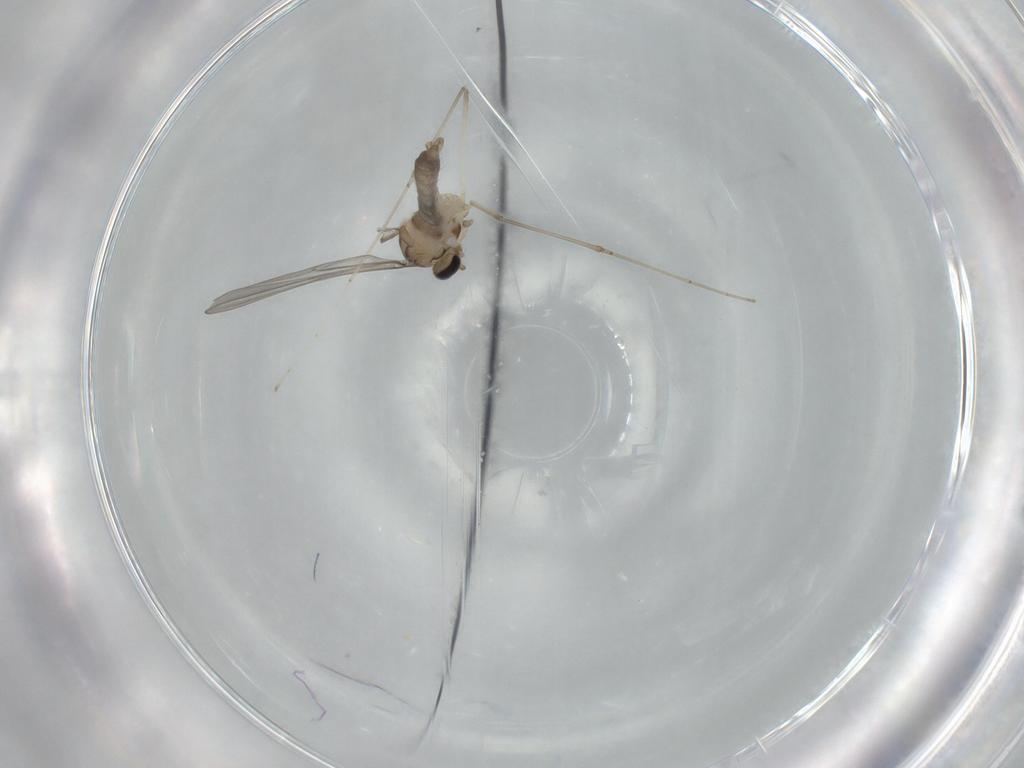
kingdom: Animalia
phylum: Arthropoda
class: Insecta
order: Diptera
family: Cecidomyiidae
